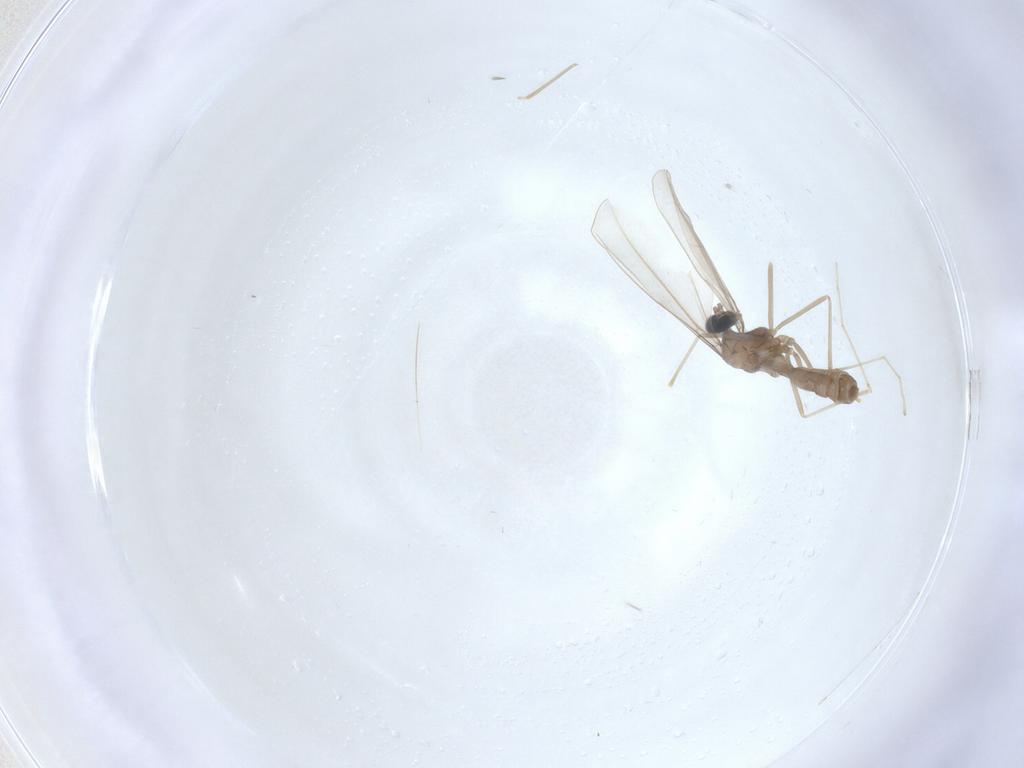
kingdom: Animalia
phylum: Arthropoda
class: Insecta
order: Diptera
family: Cecidomyiidae
